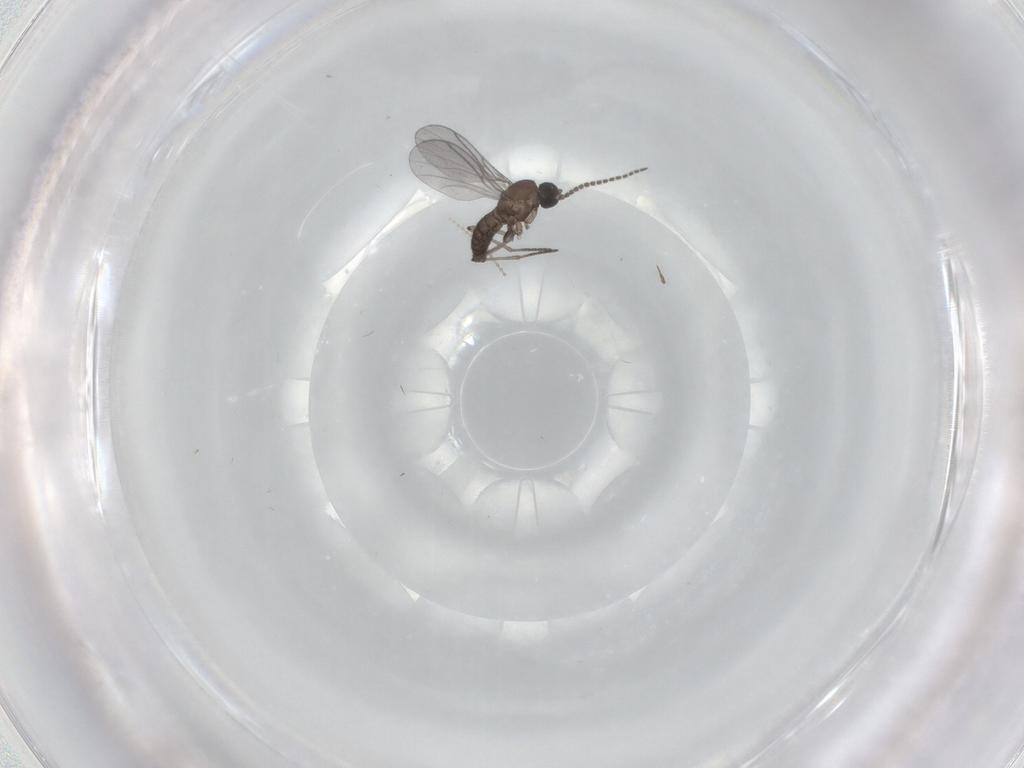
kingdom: Animalia
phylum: Arthropoda
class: Insecta
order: Diptera
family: Cecidomyiidae
